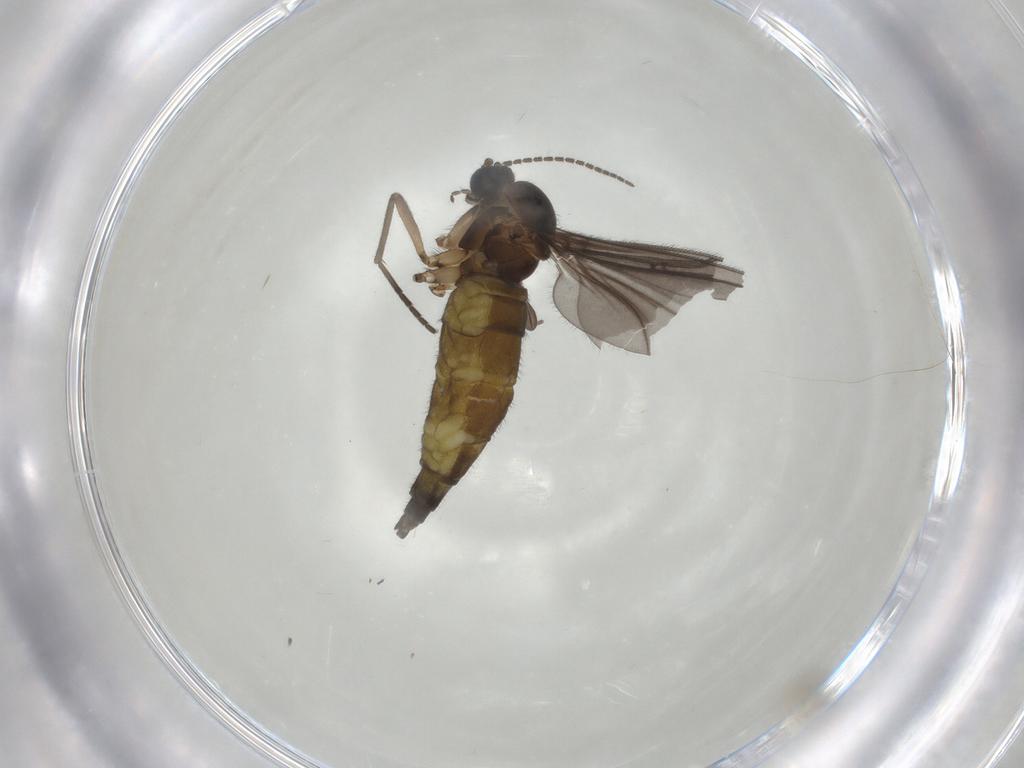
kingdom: Animalia
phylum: Arthropoda
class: Insecta
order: Diptera
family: Sciaridae
